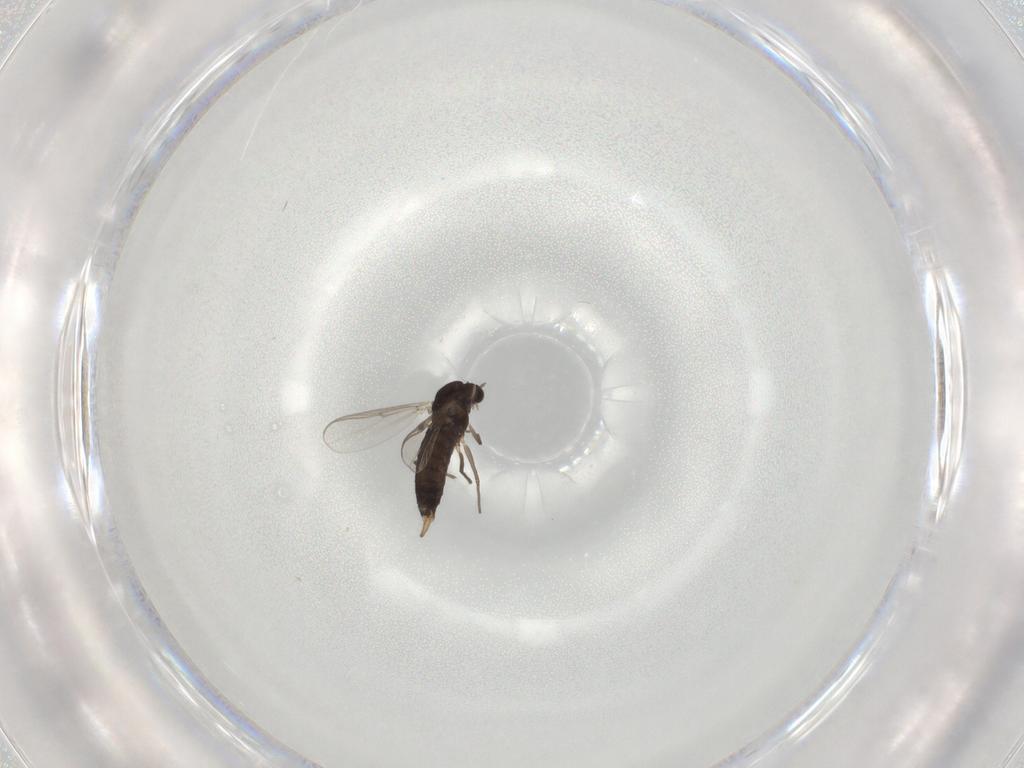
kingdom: Animalia
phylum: Arthropoda
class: Insecta
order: Diptera
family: Chironomidae
